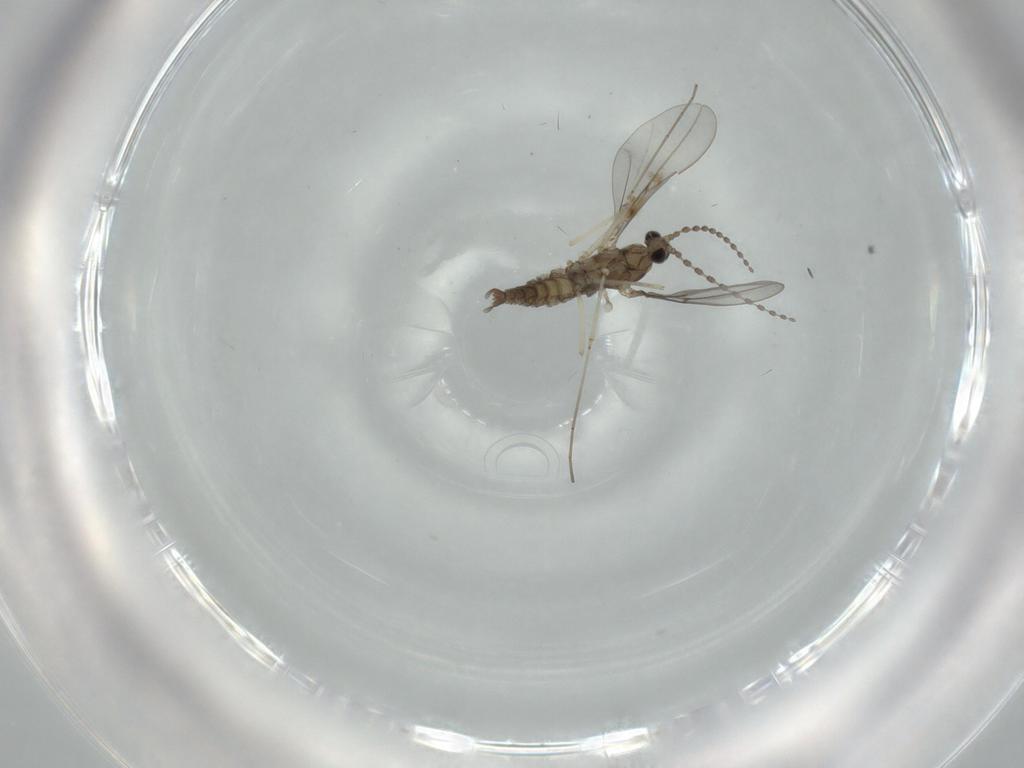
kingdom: Animalia
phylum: Arthropoda
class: Insecta
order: Diptera
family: Cecidomyiidae
